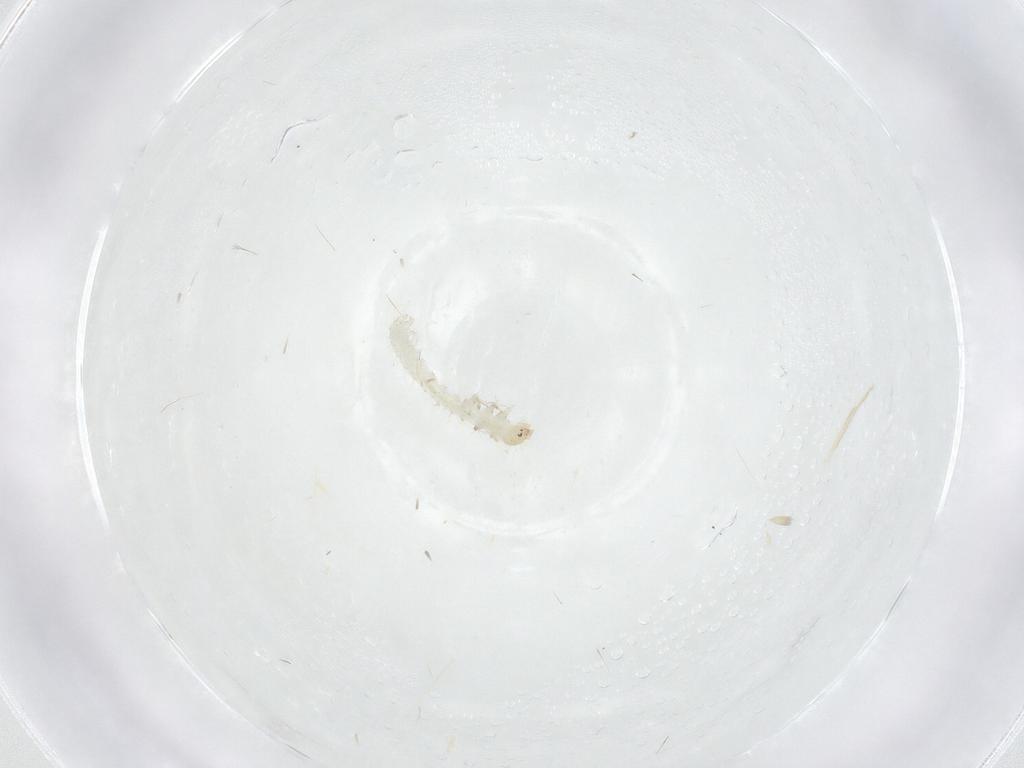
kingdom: Animalia
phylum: Arthropoda
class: Insecta
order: Lepidoptera
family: Erebidae
